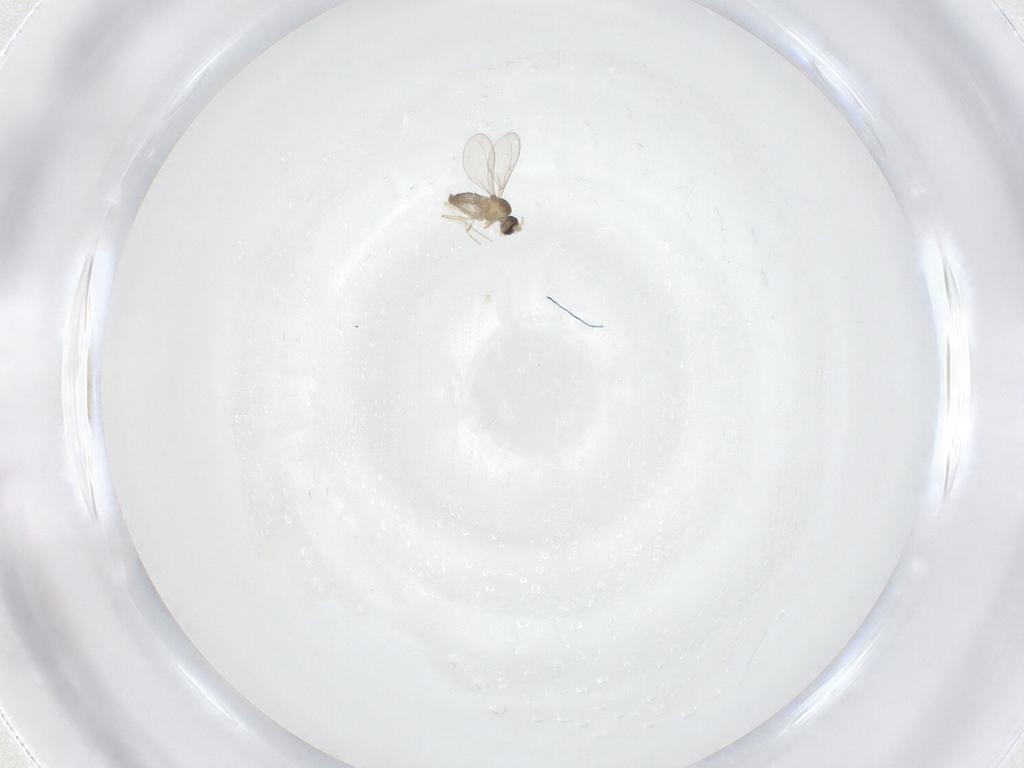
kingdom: Animalia
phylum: Arthropoda
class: Insecta
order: Diptera
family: Cecidomyiidae
